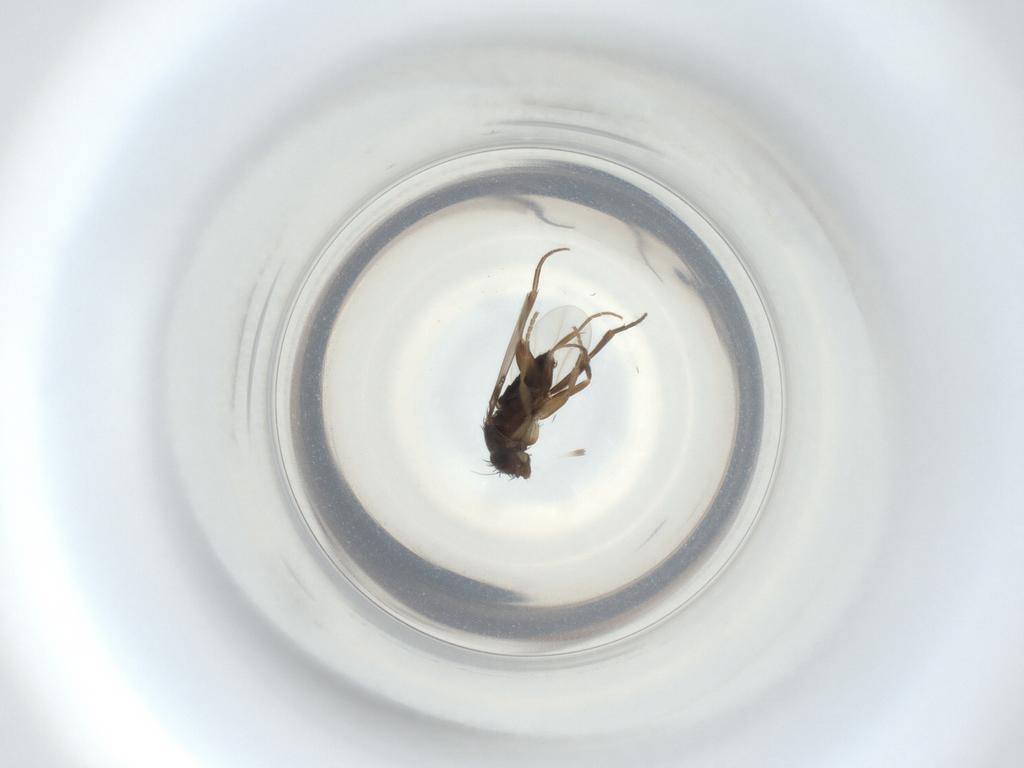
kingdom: Animalia
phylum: Arthropoda
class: Insecta
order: Diptera
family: Phoridae
